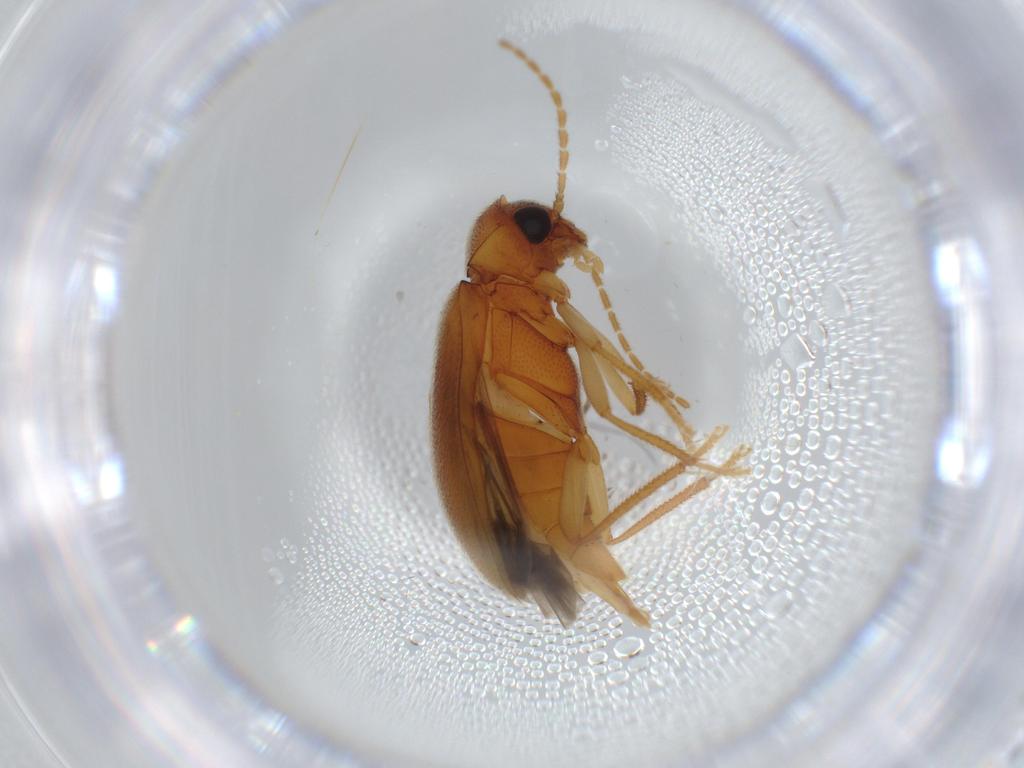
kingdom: Animalia
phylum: Arthropoda
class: Insecta
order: Coleoptera
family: Ptilodactylidae
